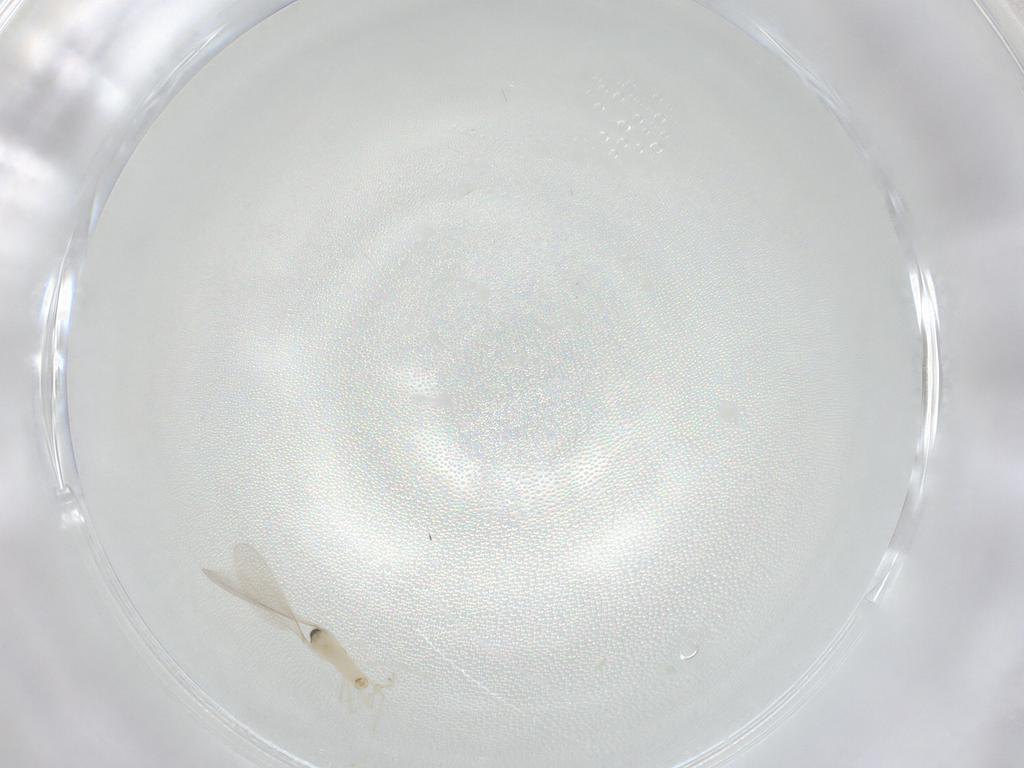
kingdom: Animalia
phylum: Arthropoda
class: Insecta
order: Diptera
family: Cecidomyiidae
